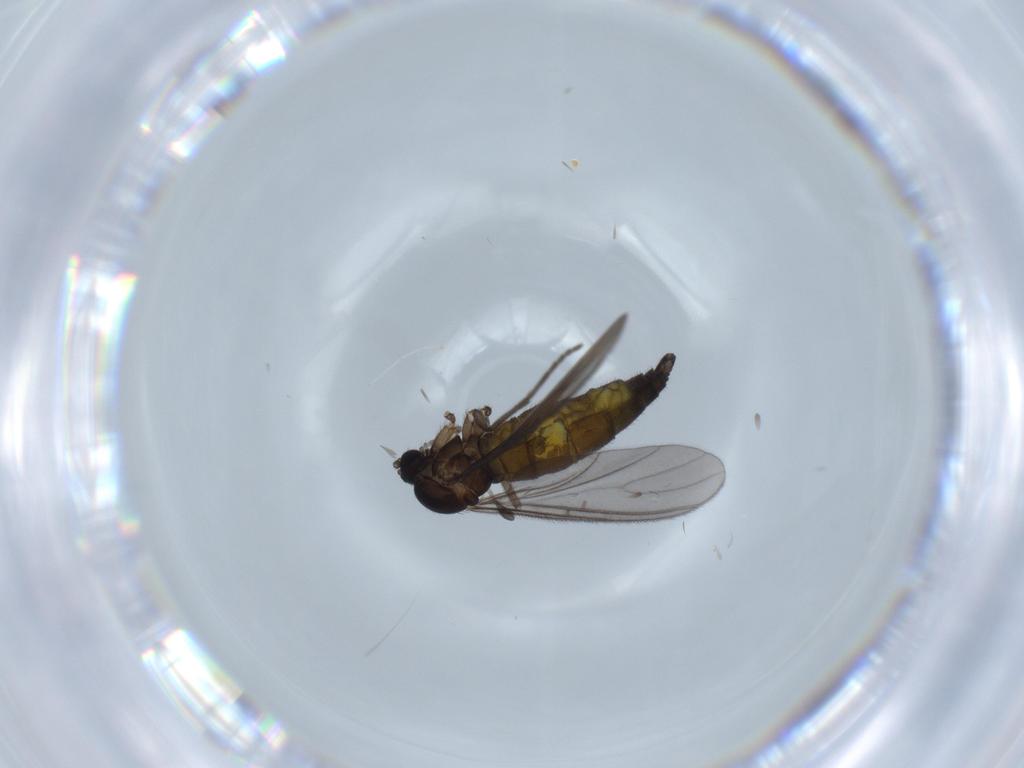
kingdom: Animalia
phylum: Arthropoda
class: Insecta
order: Diptera
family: Sciaridae
